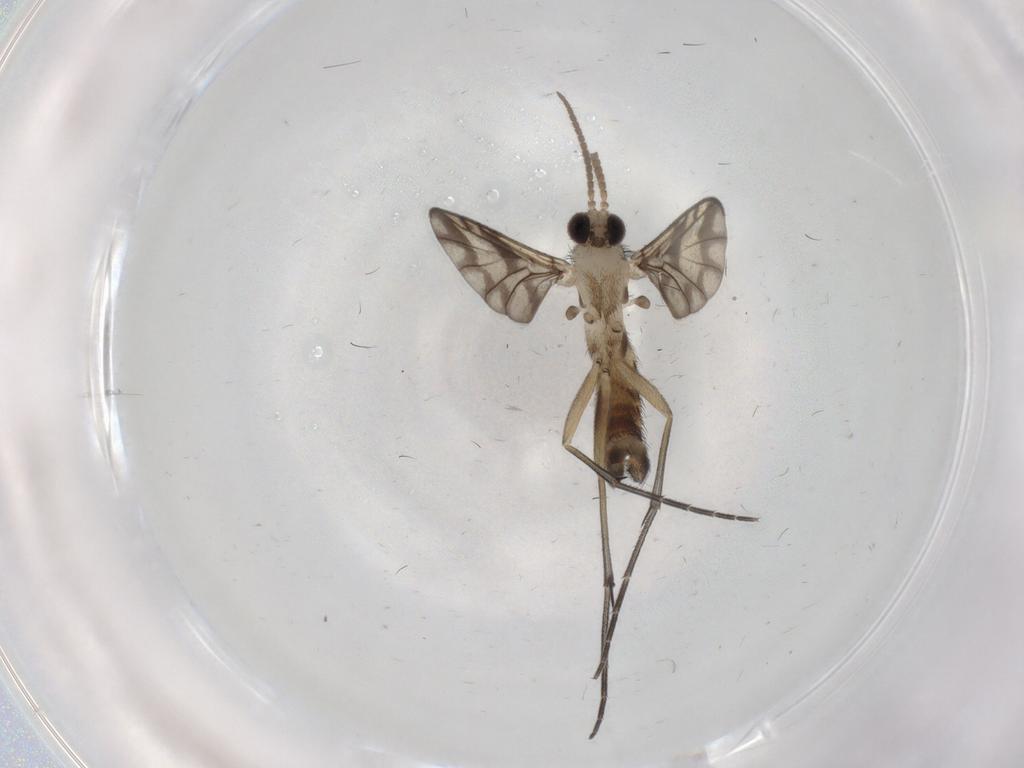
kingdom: Animalia
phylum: Arthropoda
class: Insecta
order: Diptera
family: Keroplatidae
